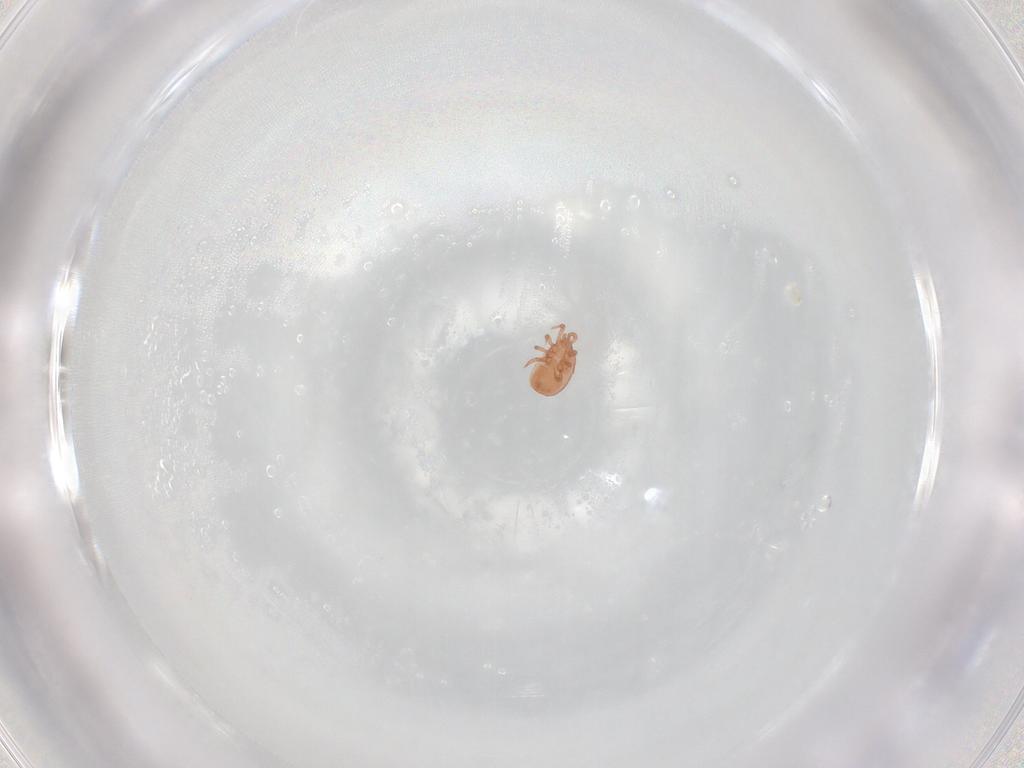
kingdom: Animalia
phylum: Arthropoda
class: Arachnida
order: Mesostigmata
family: Zerconidae
